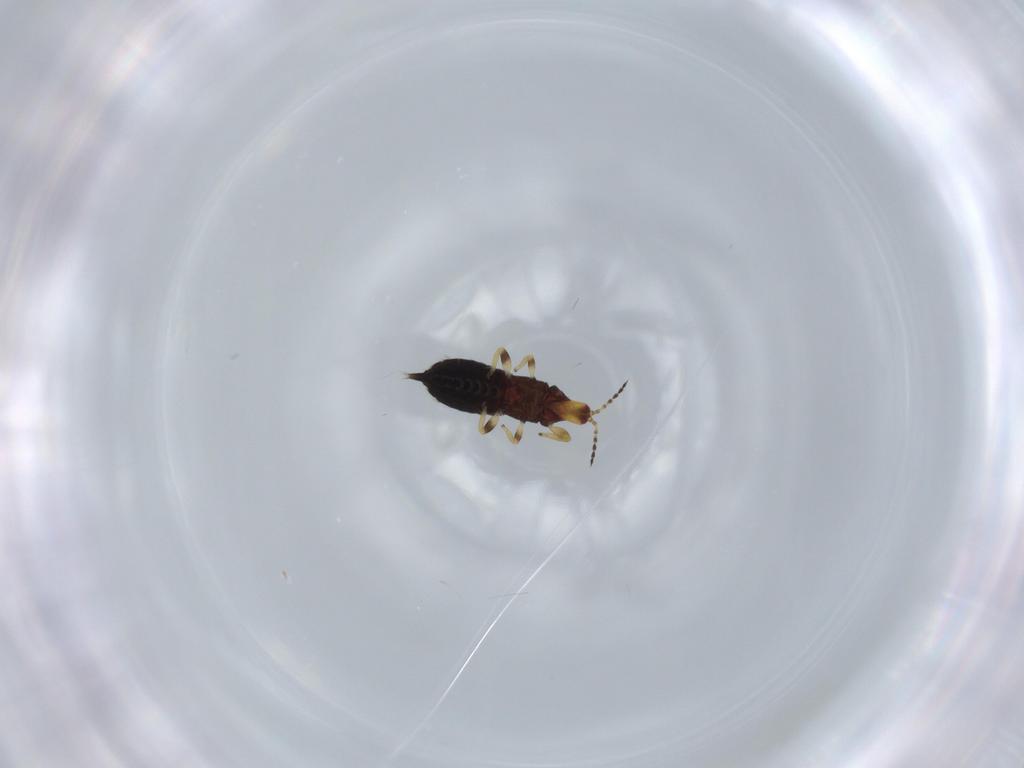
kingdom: Animalia
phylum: Arthropoda
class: Insecta
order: Thysanoptera
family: Phlaeothripidae
